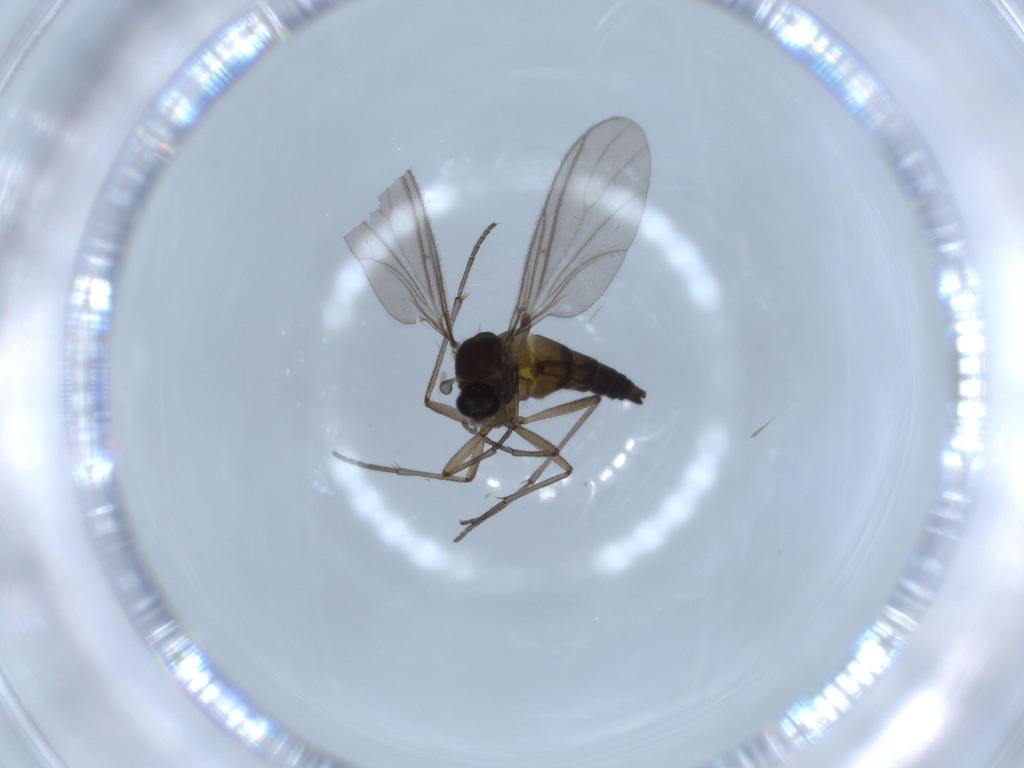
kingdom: Animalia
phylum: Arthropoda
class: Insecta
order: Diptera
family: Sciaridae
